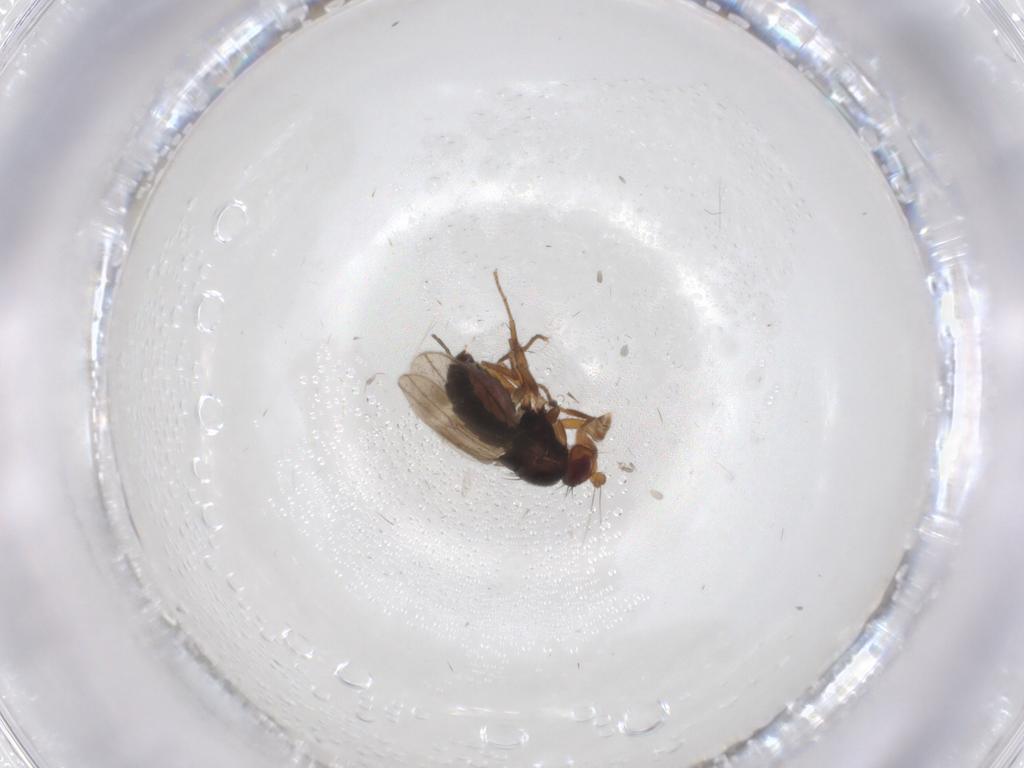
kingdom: Animalia
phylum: Arthropoda
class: Insecta
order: Diptera
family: Sphaeroceridae
